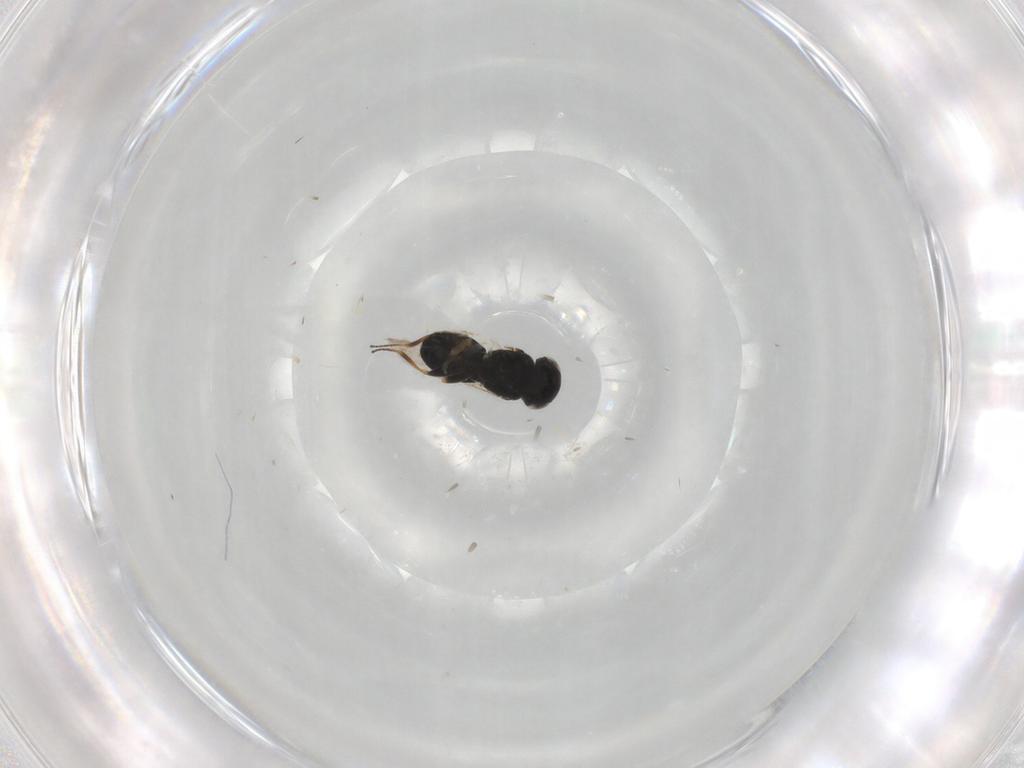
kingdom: Animalia
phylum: Arthropoda
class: Insecta
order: Hymenoptera
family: Scelionidae
